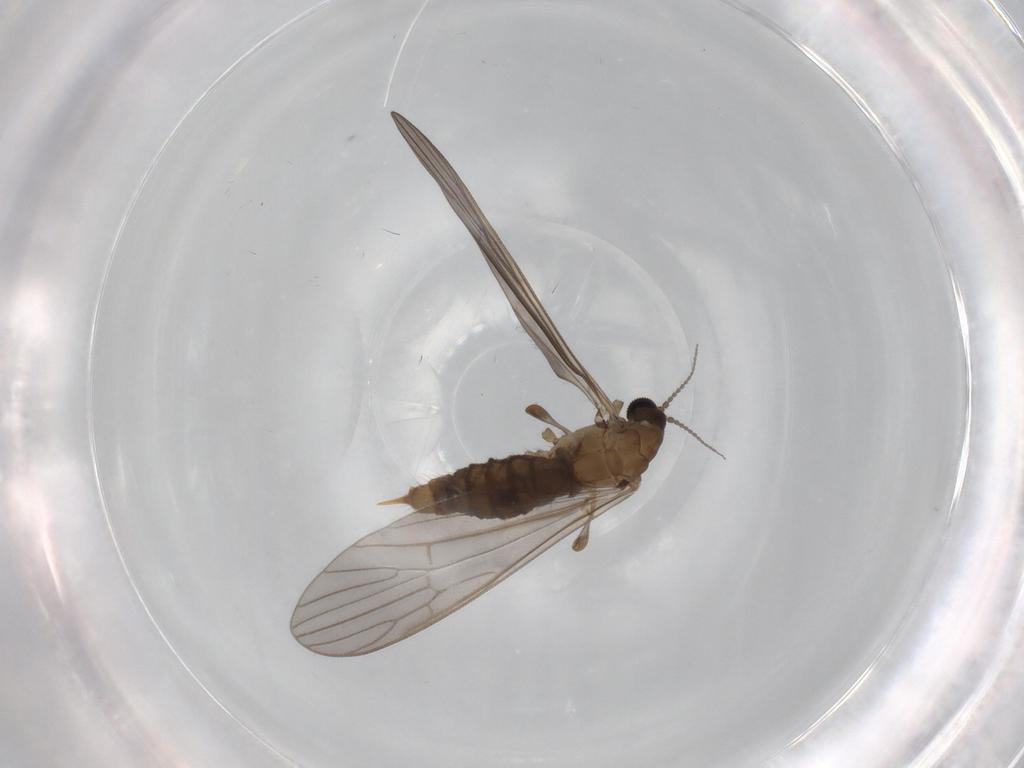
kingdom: Animalia
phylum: Arthropoda
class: Insecta
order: Diptera
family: Limoniidae
